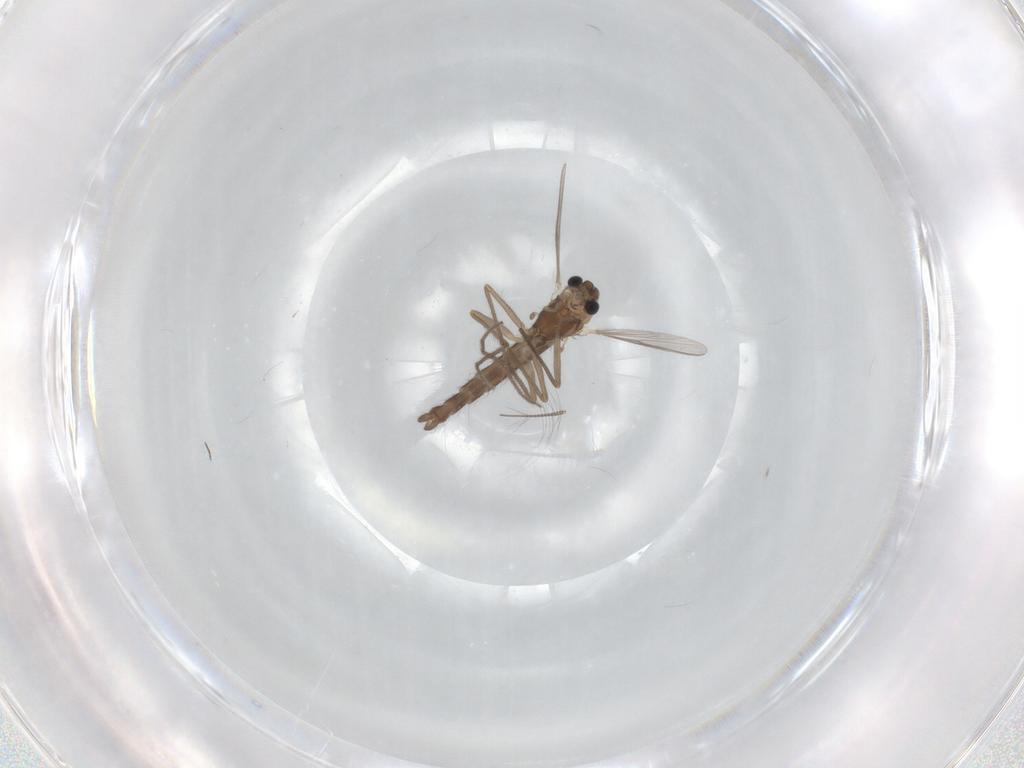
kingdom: Animalia
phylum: Arthropoda
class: Insecta
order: Diptera
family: Chironomidae
